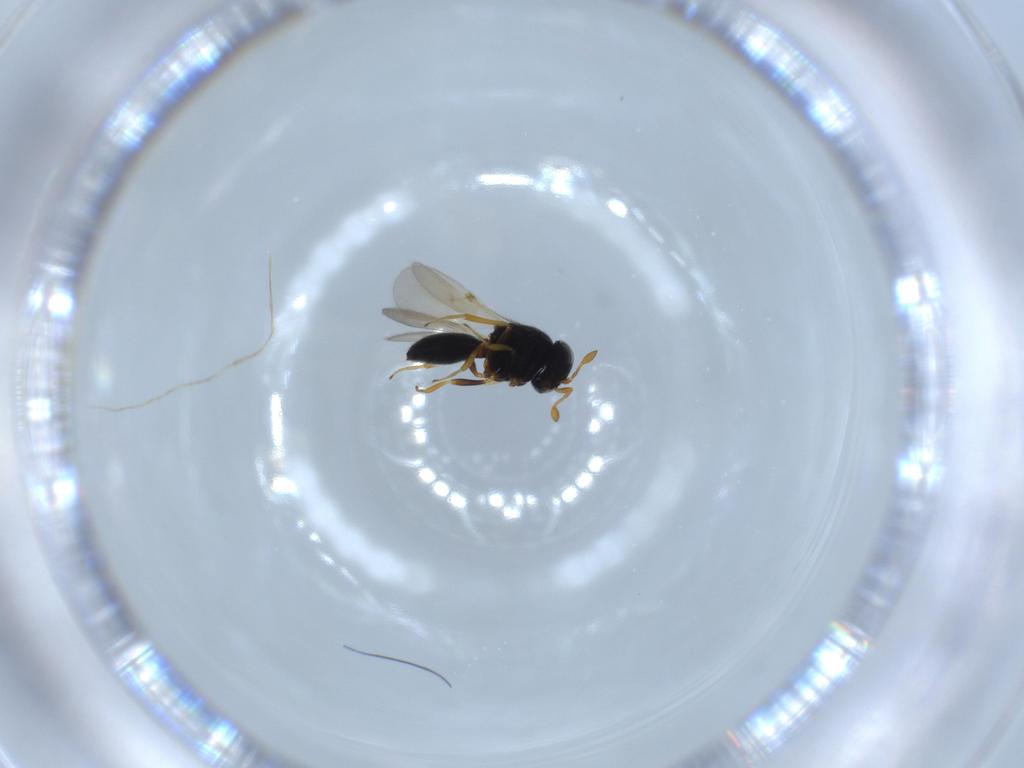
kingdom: Animalia
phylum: Arthropoda
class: Insecta
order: Hymenoptera
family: Scelionidae
